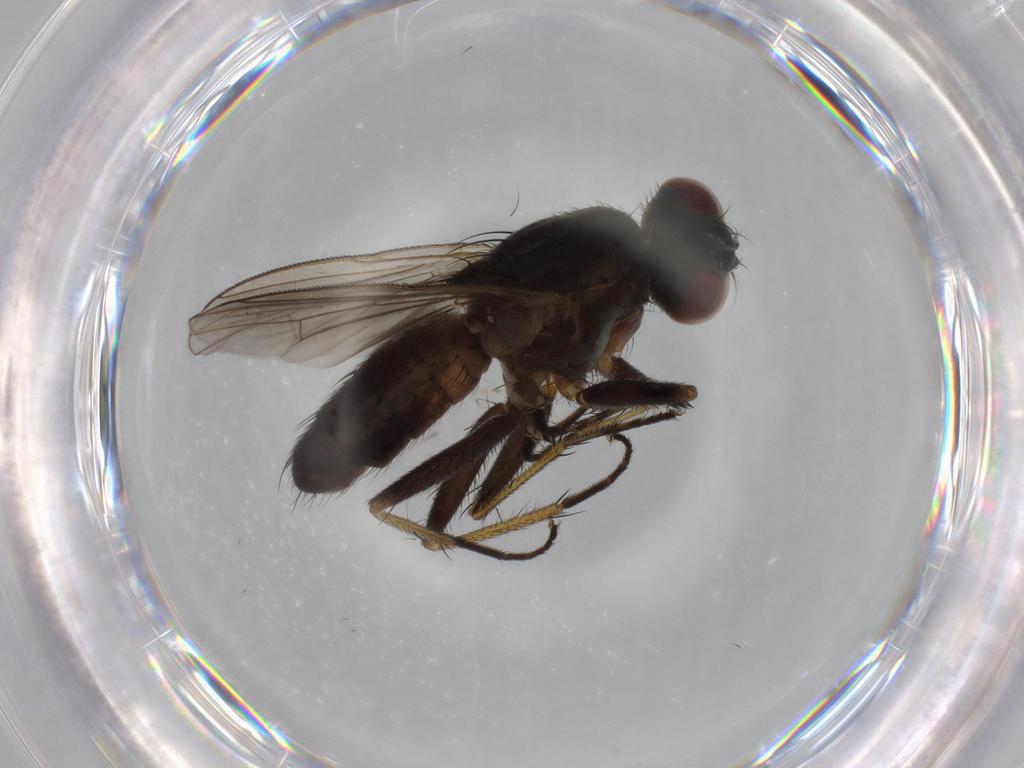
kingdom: Animalia
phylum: Arthropoda
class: Insecta
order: Diptera
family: Muscidae
